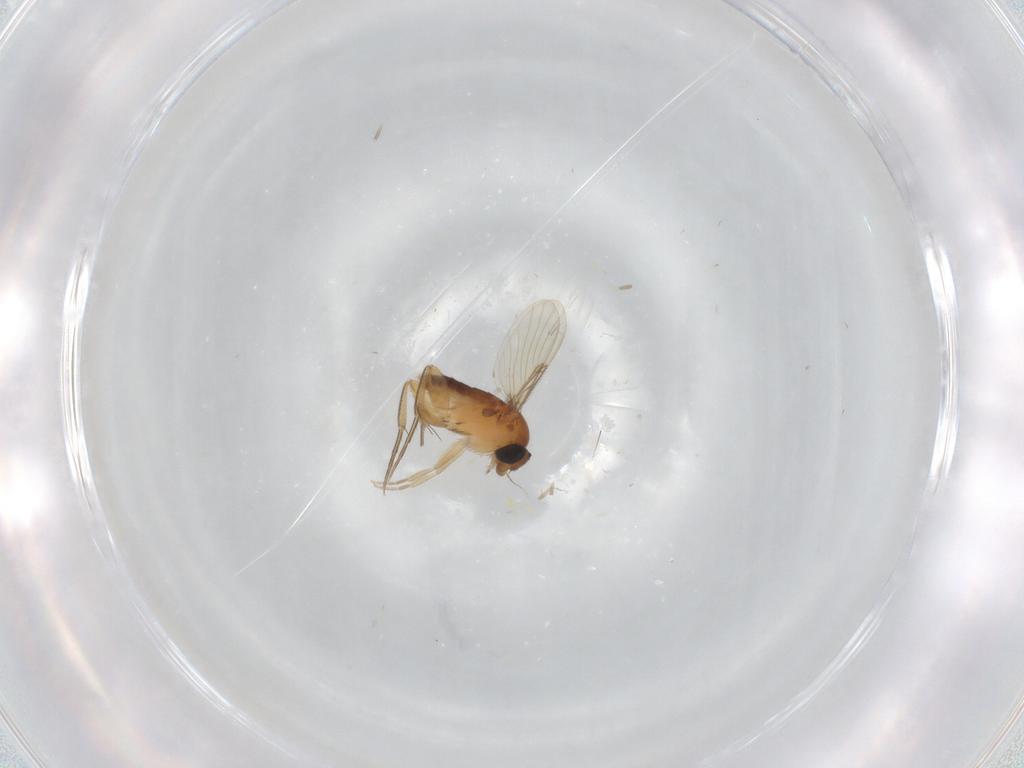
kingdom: Animalia
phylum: Arthropoda
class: Insecta
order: Diptera
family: Cecidomyiidae
